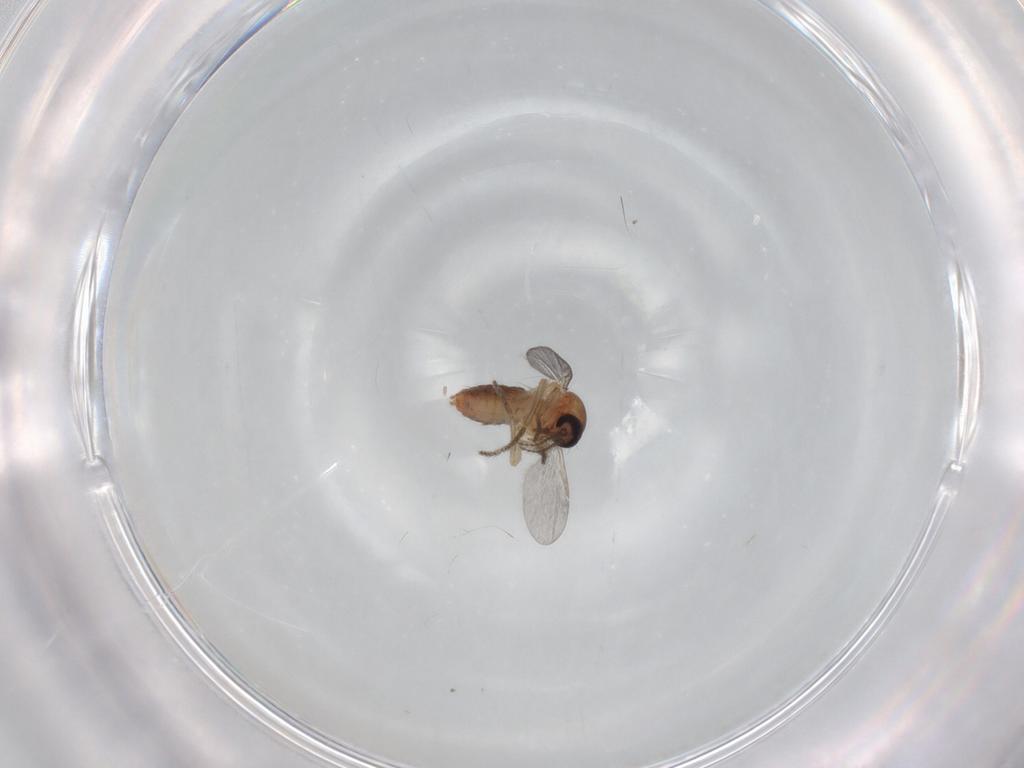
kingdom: Animalia
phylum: Arthropoda
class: Insecta
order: Diptera
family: Ceratopogonidae
